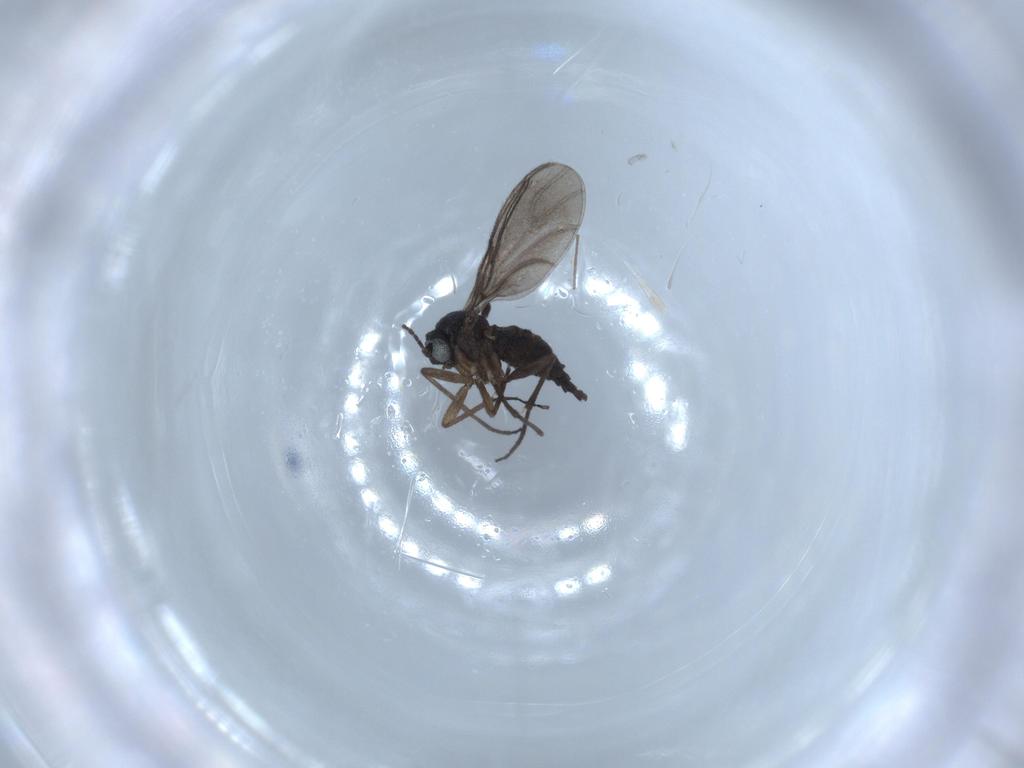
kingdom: Animalia
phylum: Arthropoda
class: Insecta
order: Diptera
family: Sciaridae
